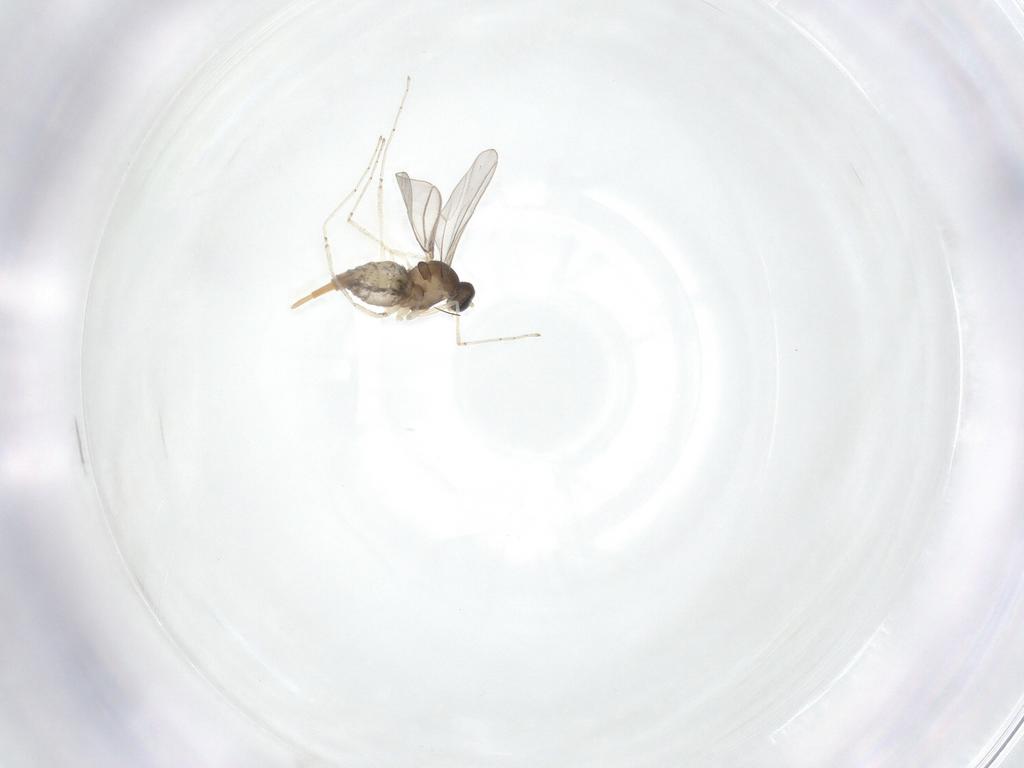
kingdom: Animalia
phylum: Arthropoda
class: Insecta
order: Diptera
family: Cecidomyiidae
